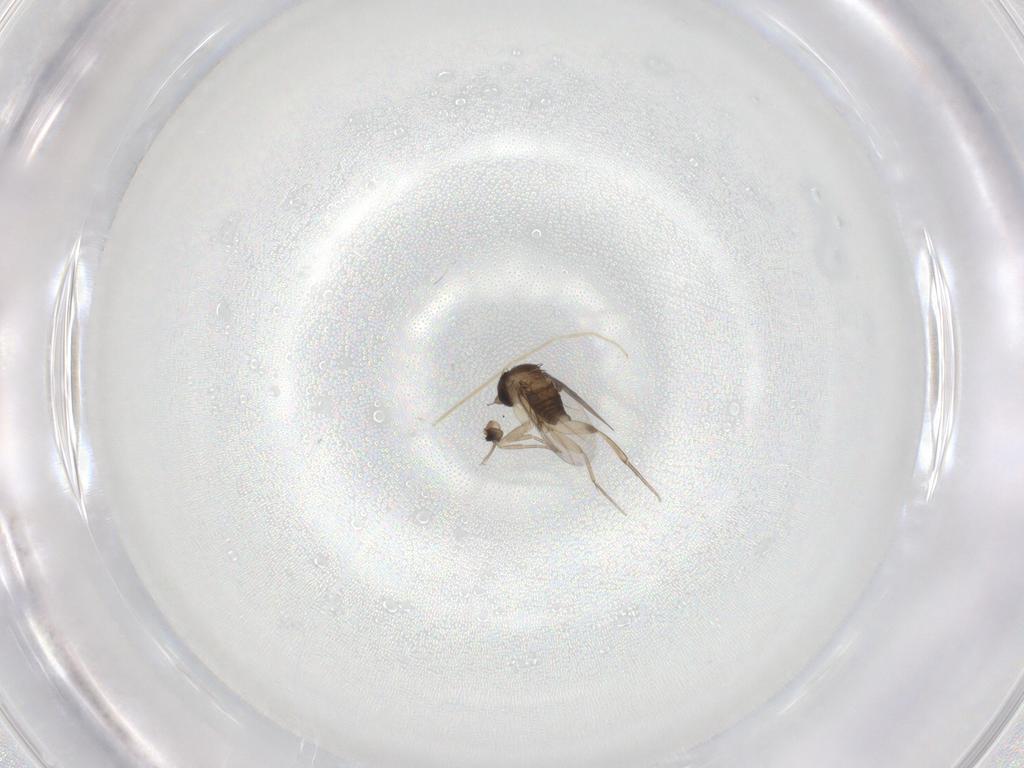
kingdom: Animalia
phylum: Arthropoda
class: Insecta
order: Diptera
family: Phoridae
